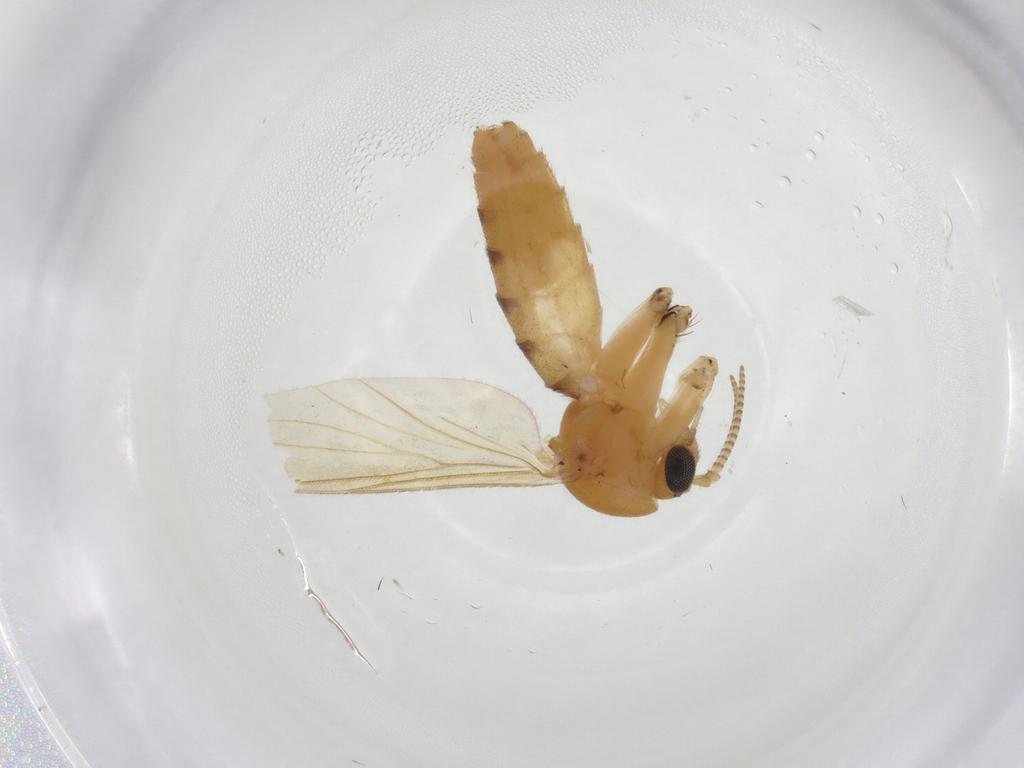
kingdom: Animalia
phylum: Arthropoda
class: Insecta
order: Diptera
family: Mycetophilidae
